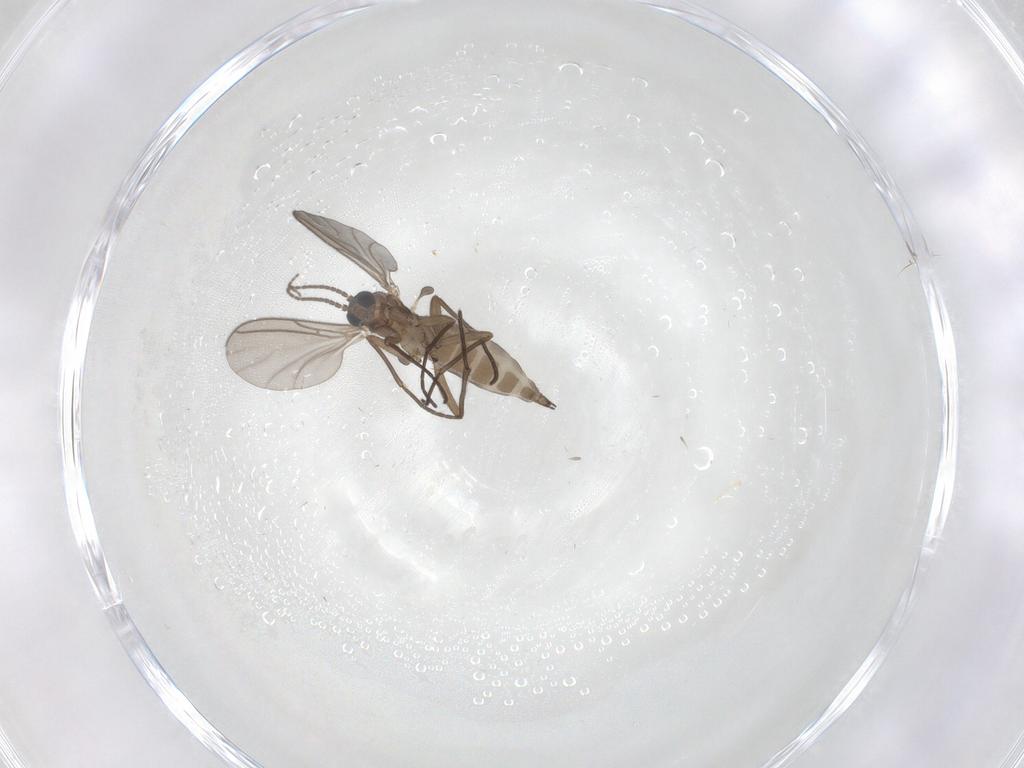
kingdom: Animalia
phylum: Arthropoda
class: Insecta
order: Diptera
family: Sciaridae
